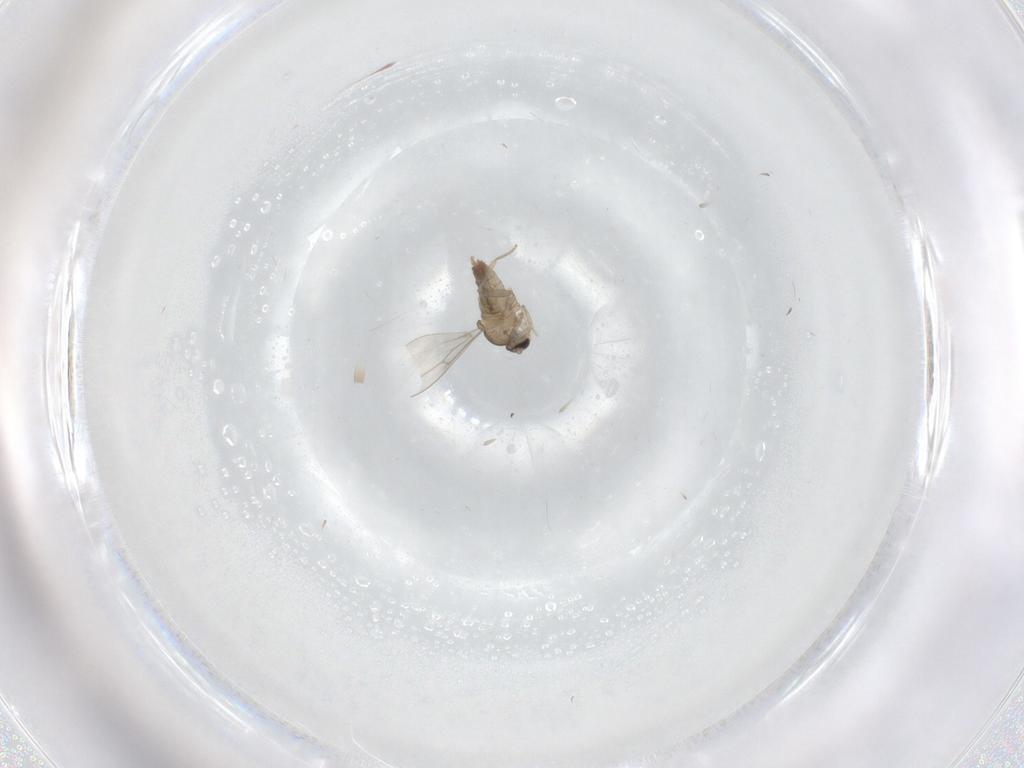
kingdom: Animalia
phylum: Arthropoda
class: Insecta
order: Diptera
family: Cecidomyiidae
